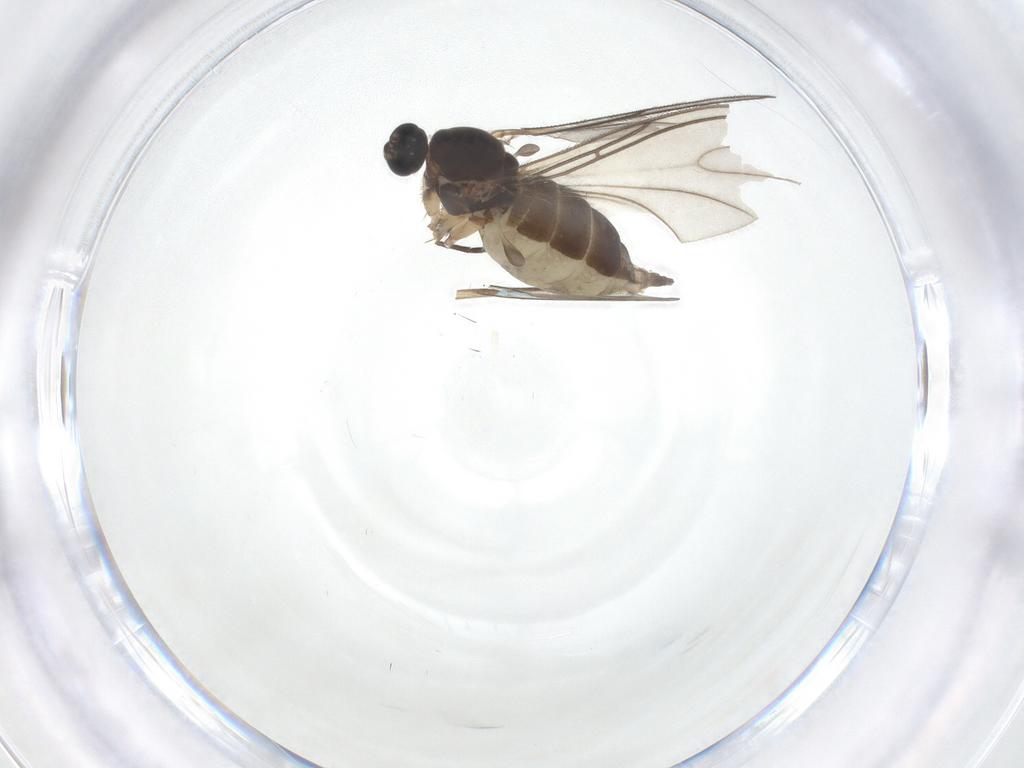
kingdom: Animalia
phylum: Arthropoda
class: Insecta
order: Diptera
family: Sciaridae
